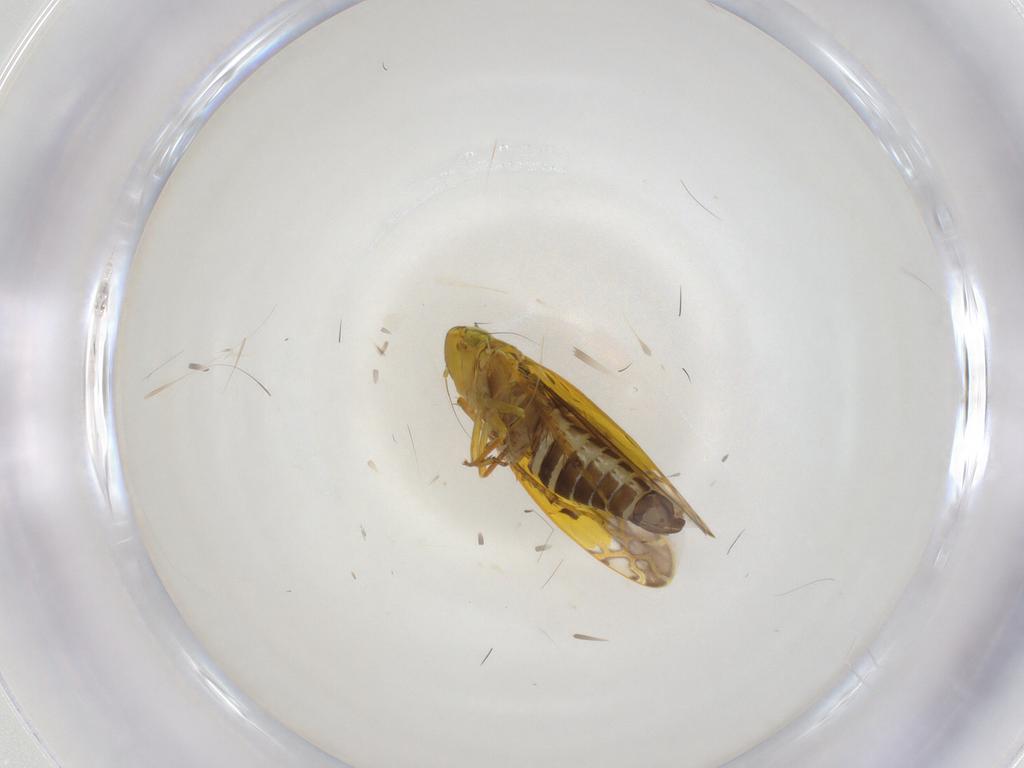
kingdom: Animalia
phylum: Arthropoda
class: Insecta
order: Hemiptera
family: Cicadellidae
